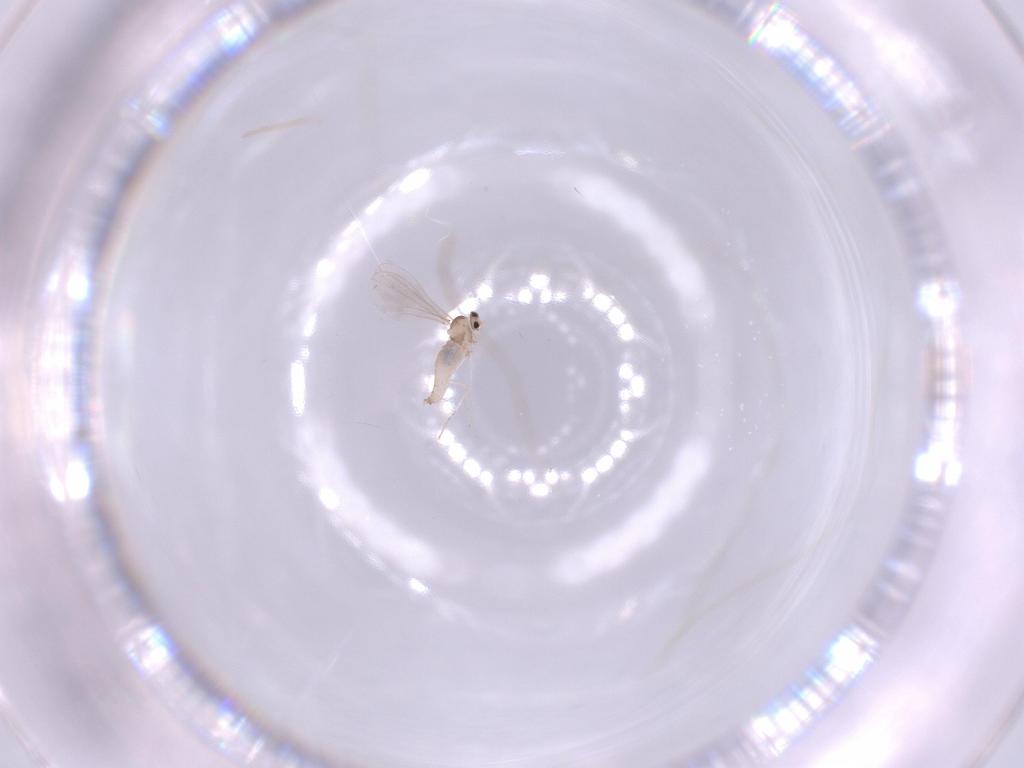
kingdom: Animalia
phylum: Arthropoda
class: Insecta
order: Diptera
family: Cecidomyiidae
